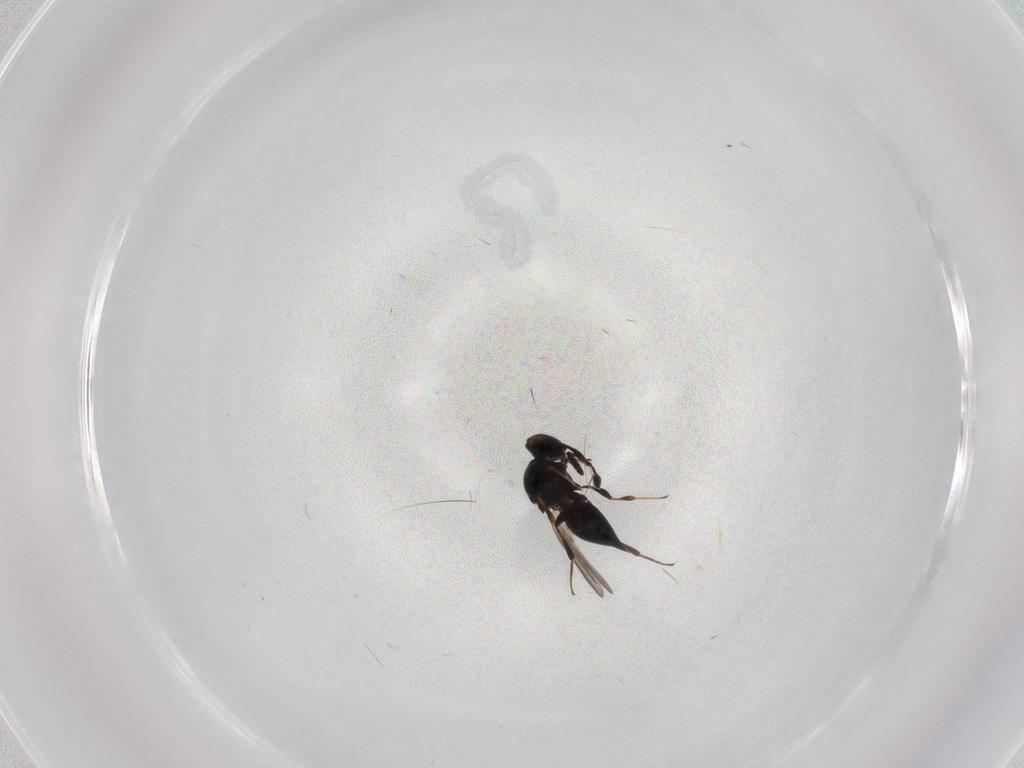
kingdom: Animalia
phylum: Arthropoda
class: Insecta
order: Hymenoptera
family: Platygastridae
